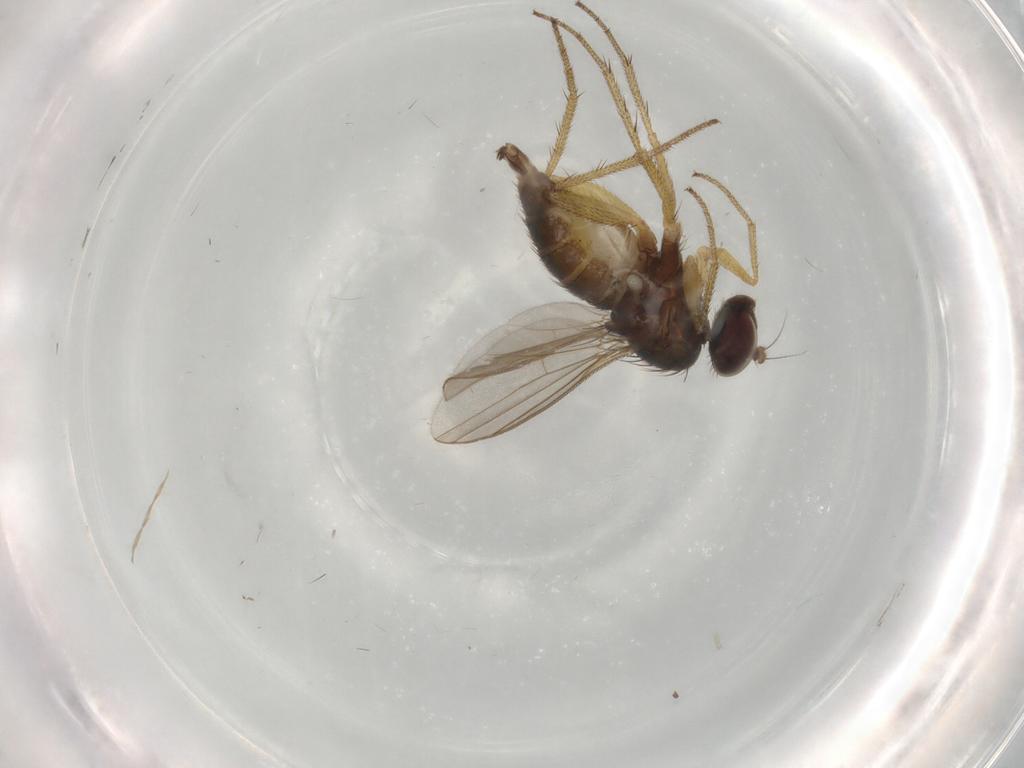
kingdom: Animalia
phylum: Arthropoda
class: Insecta
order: Diptera
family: Dolichopodidae
